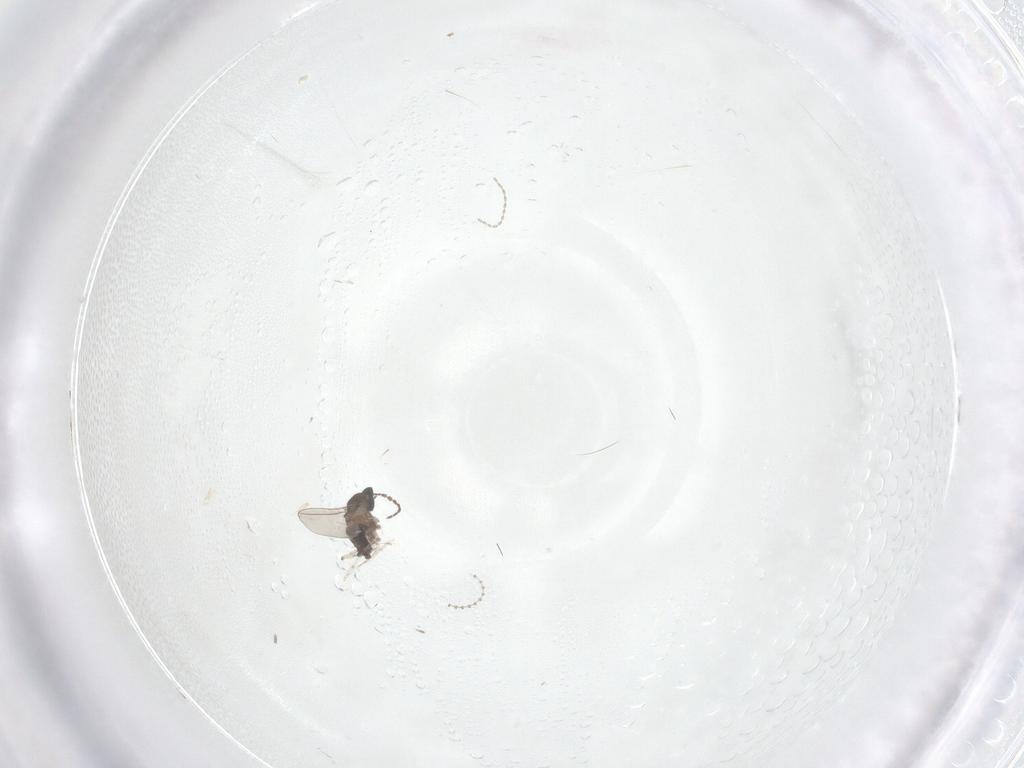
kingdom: Animalia
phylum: Arthropoda
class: Insecta
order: Diptera
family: Cecidomyiidae
